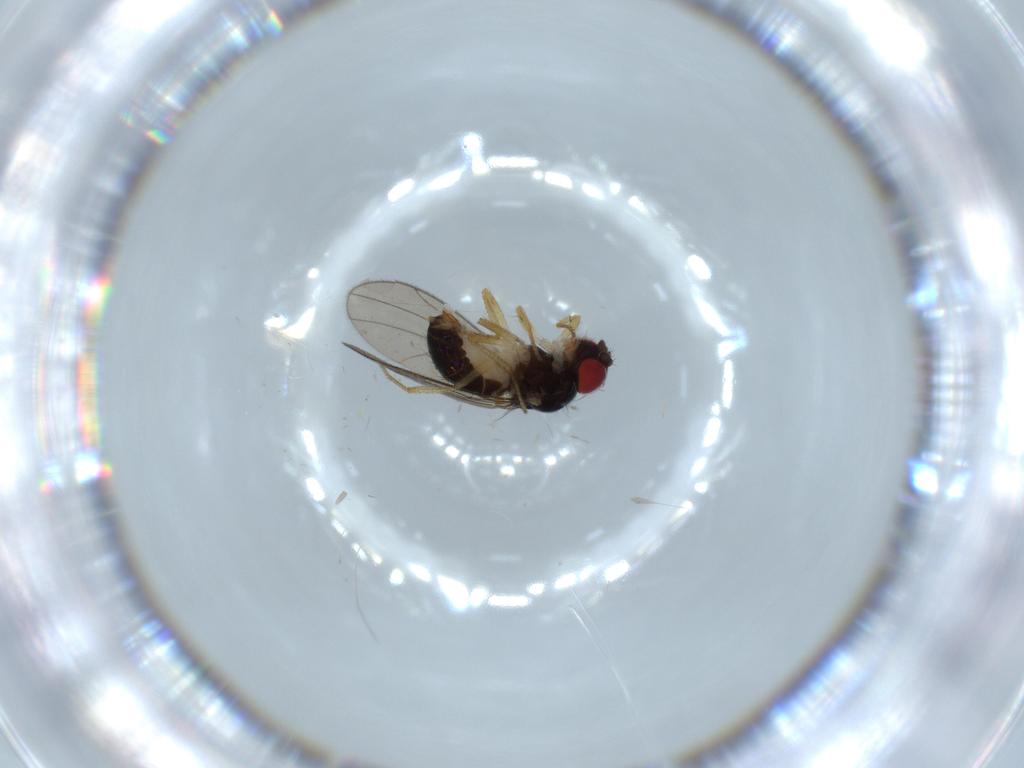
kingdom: Animalia
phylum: Arthropoda
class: Insecta
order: Diptera
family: Drosophilidae
